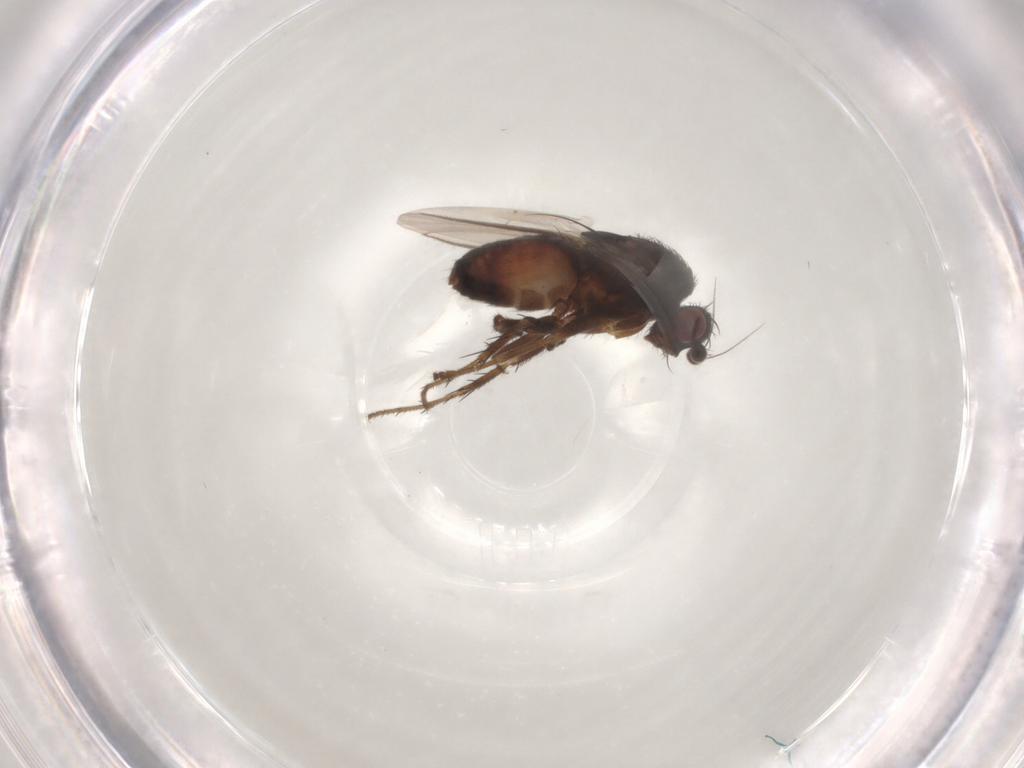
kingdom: Animalia
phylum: Arthropoda
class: Insecta
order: Diptera
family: Sphaeroceridae
